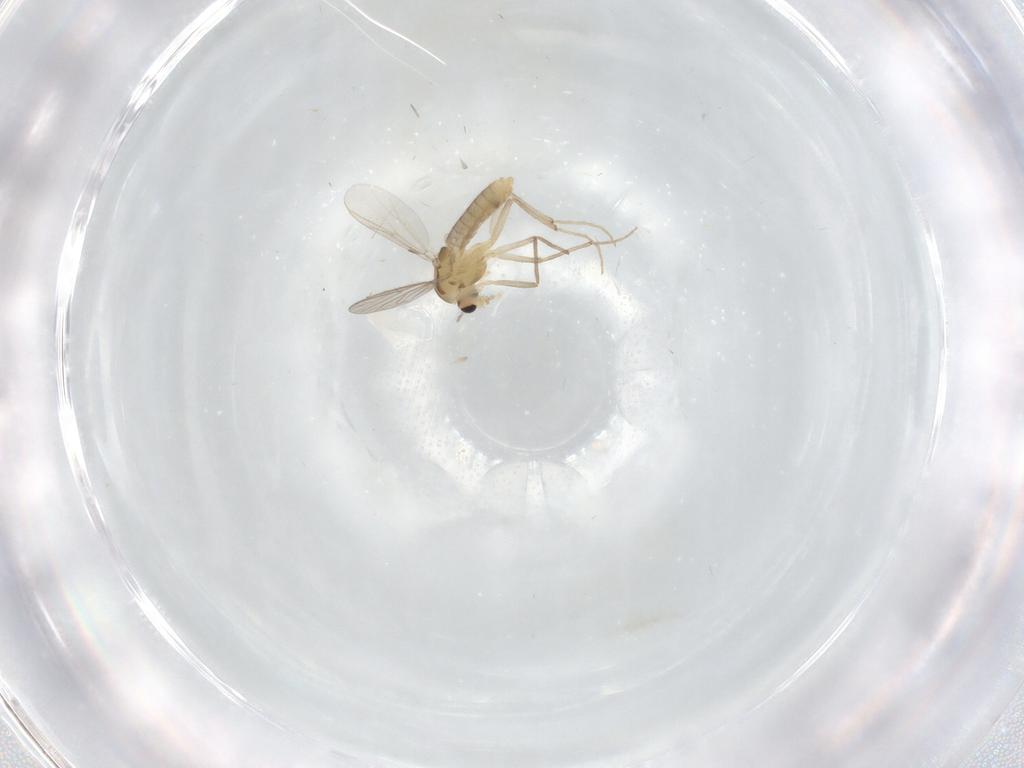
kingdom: Animalia
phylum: Arthropoda
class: Insecta
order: Diptera
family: Chironomidae
